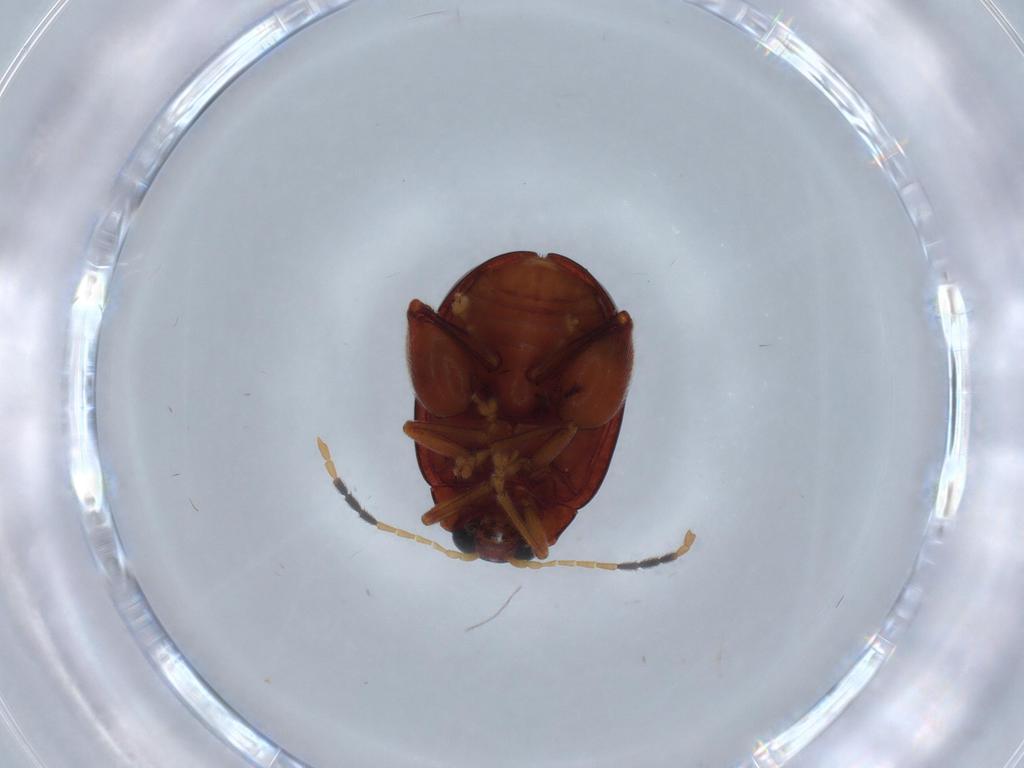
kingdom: Animalia
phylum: Arthropoda
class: Insecta
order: Coleoptera
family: Chrysomelidae
